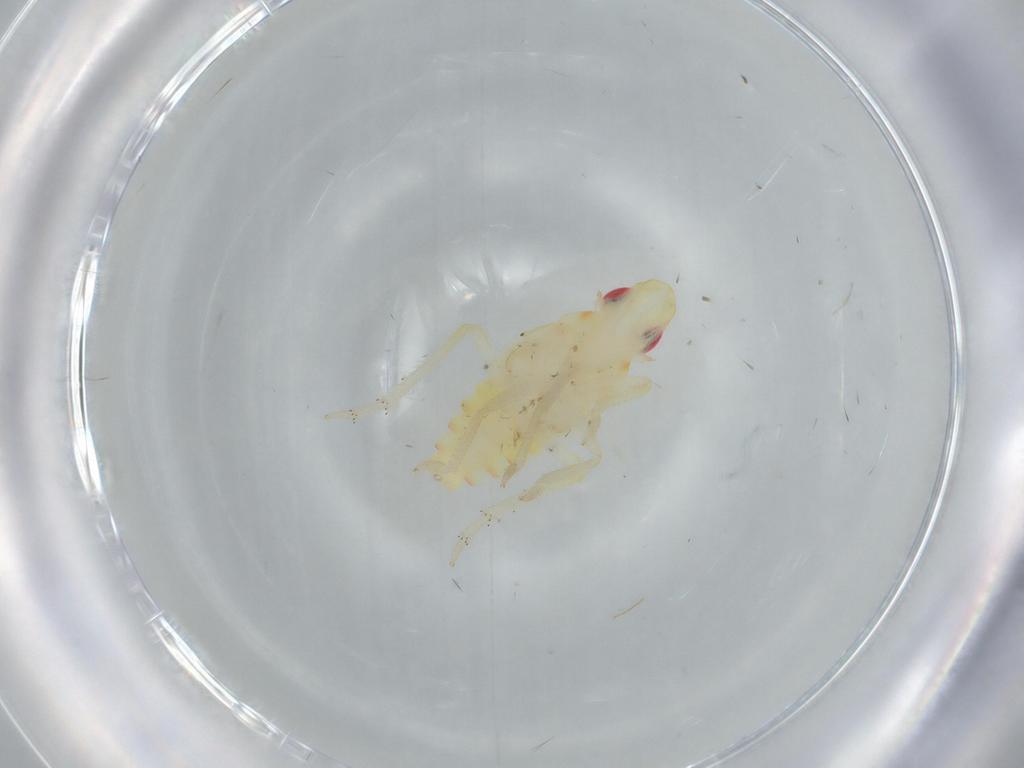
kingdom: Animalia
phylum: Arthropoda
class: Insecta
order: Hemiptera
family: Tropiduchidae
